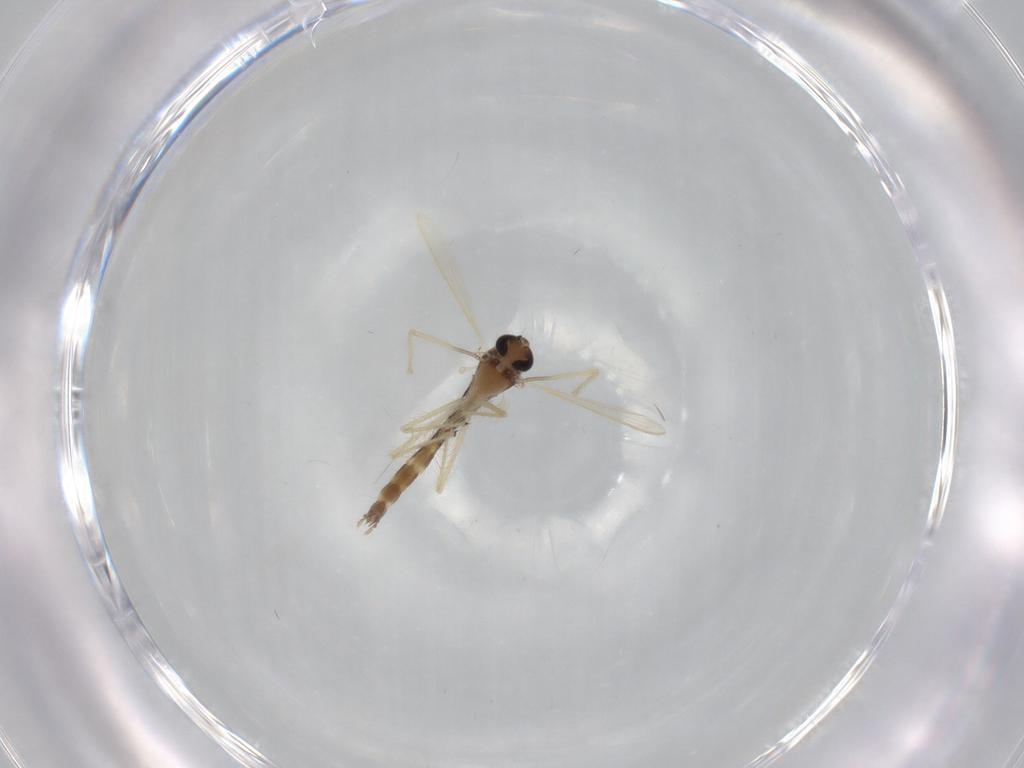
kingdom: Animalia
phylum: Arthropoda
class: Insecta
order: Diptera
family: Chironomidae
